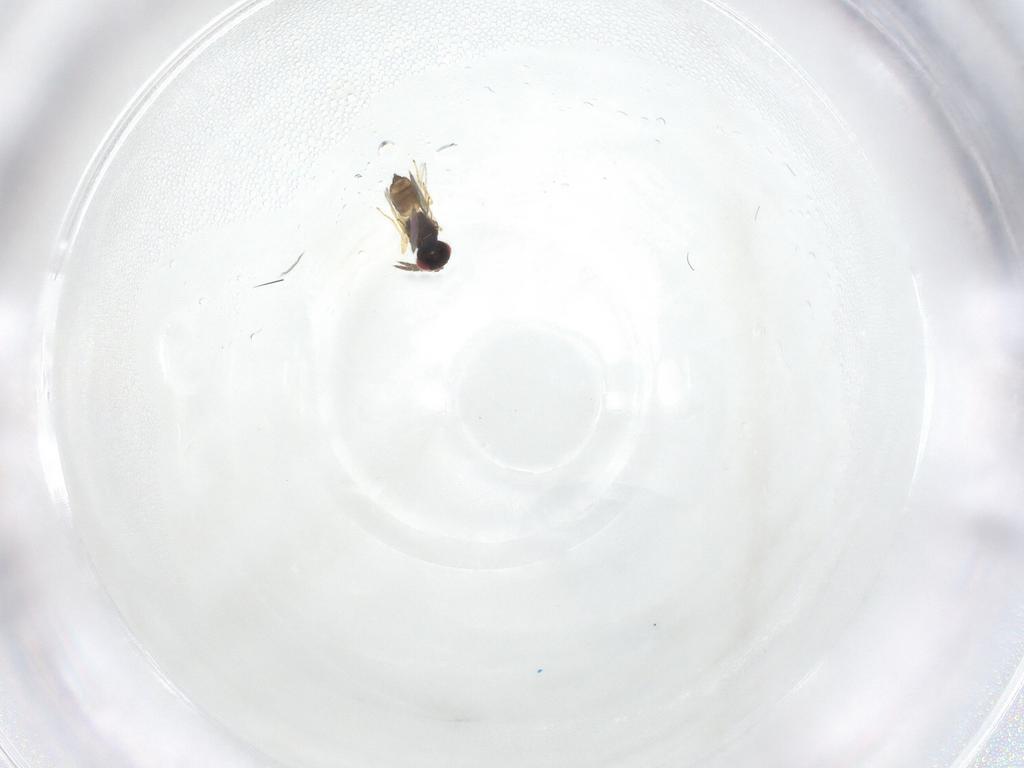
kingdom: Animalia
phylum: Arthropoda
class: Insecta
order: Hymenoptera
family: Eulophidae
